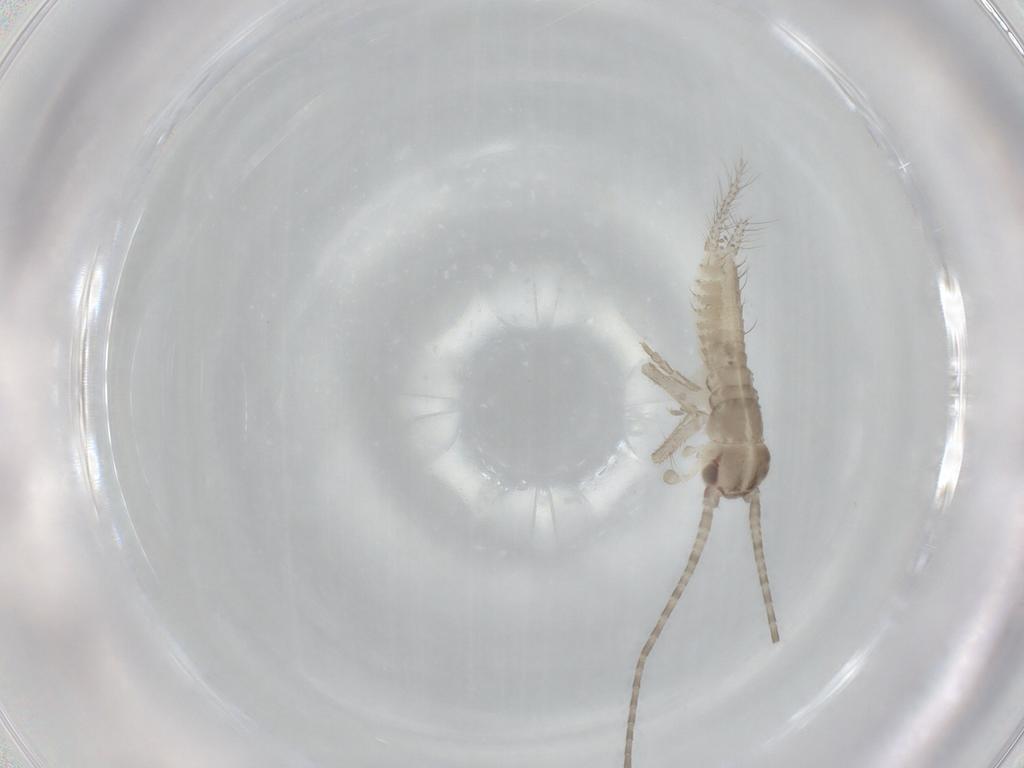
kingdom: Animalia
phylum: Arthropoda
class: Insecta
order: Orthoptera
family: Gryllidae
